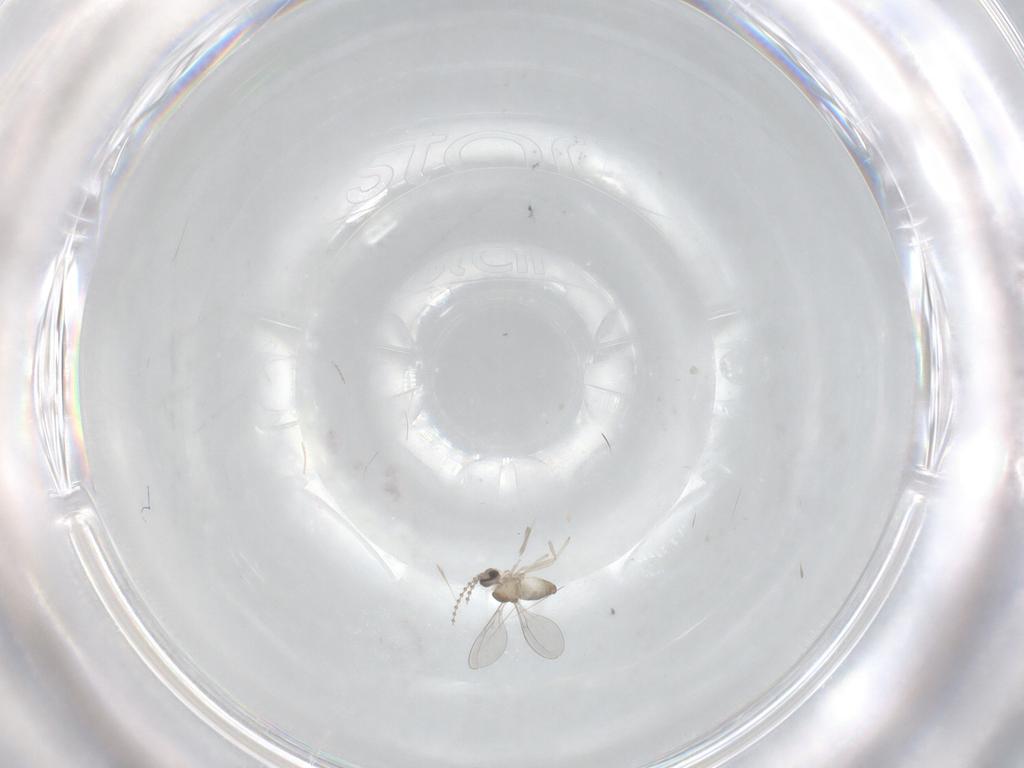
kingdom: Animalia
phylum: Arthropoda
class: Insecta
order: Diptera
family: Cecidomyiidae
